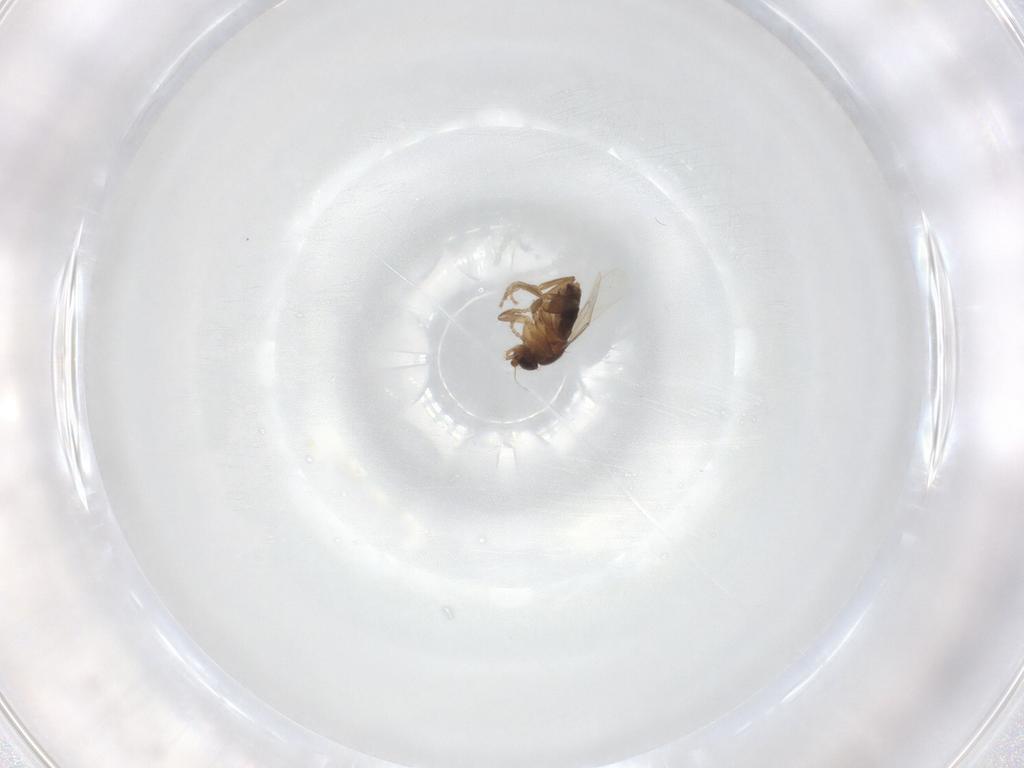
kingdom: Animalia
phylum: Arthropoda
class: Insecta
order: Diptera
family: Phoridae
